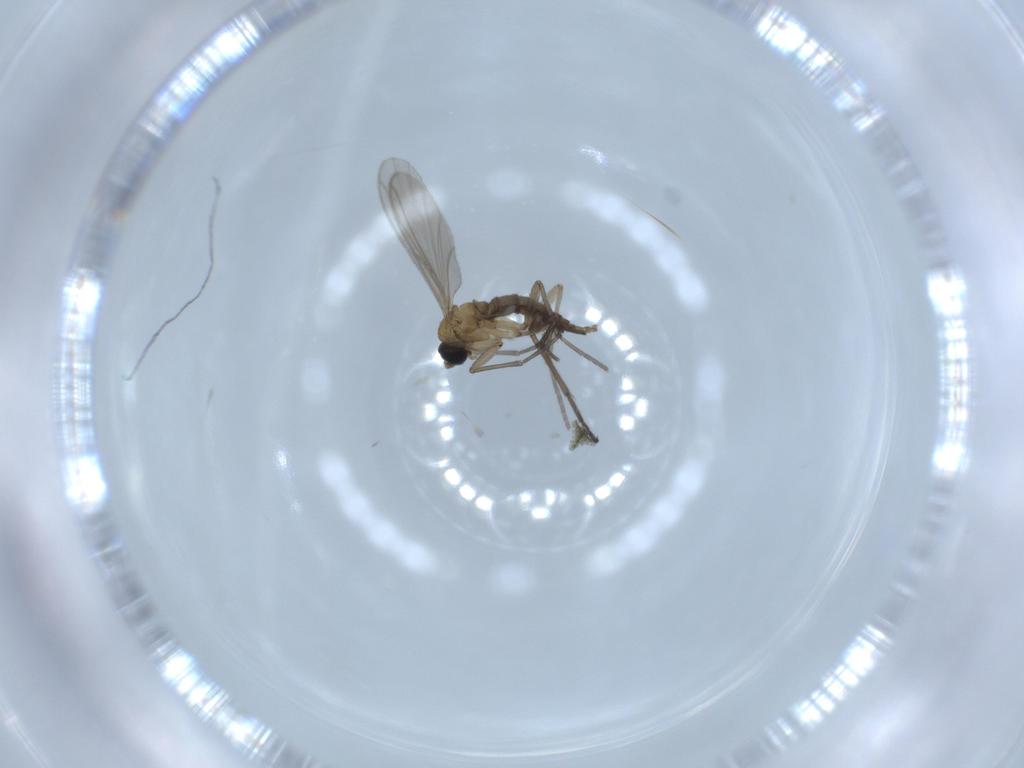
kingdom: Animalia
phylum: Arthropoda
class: Insecta
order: Diptera
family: Sciaridae
